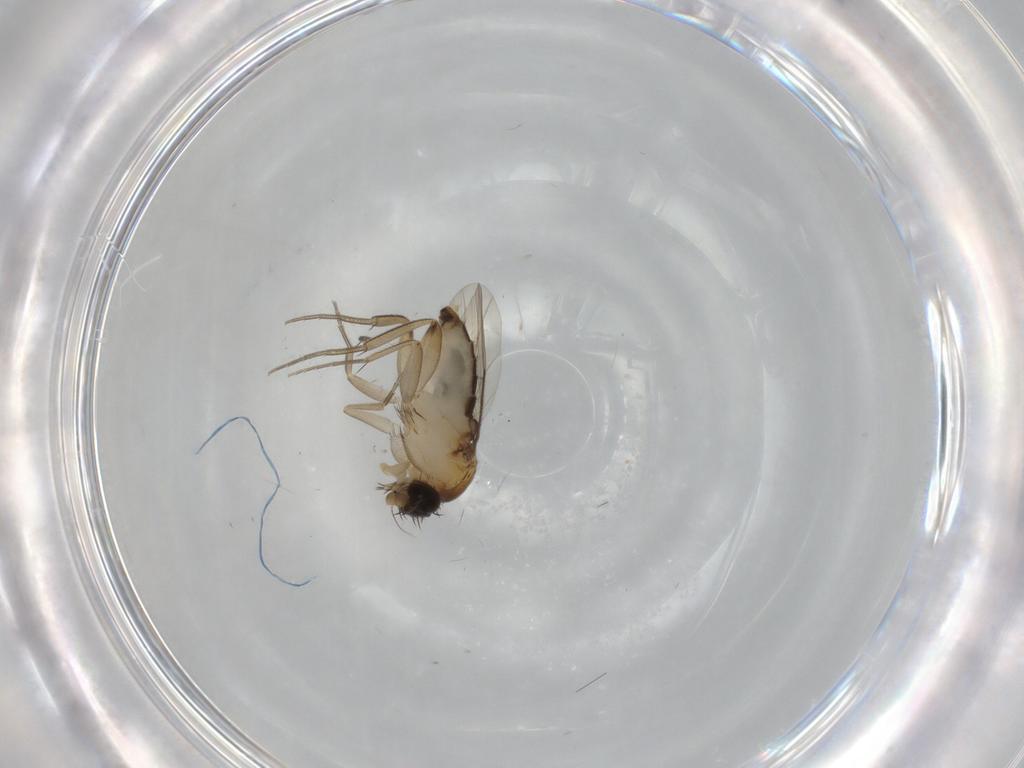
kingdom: Animalia
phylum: Arthropoda
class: Insecta
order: Diptera
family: Phoridae
